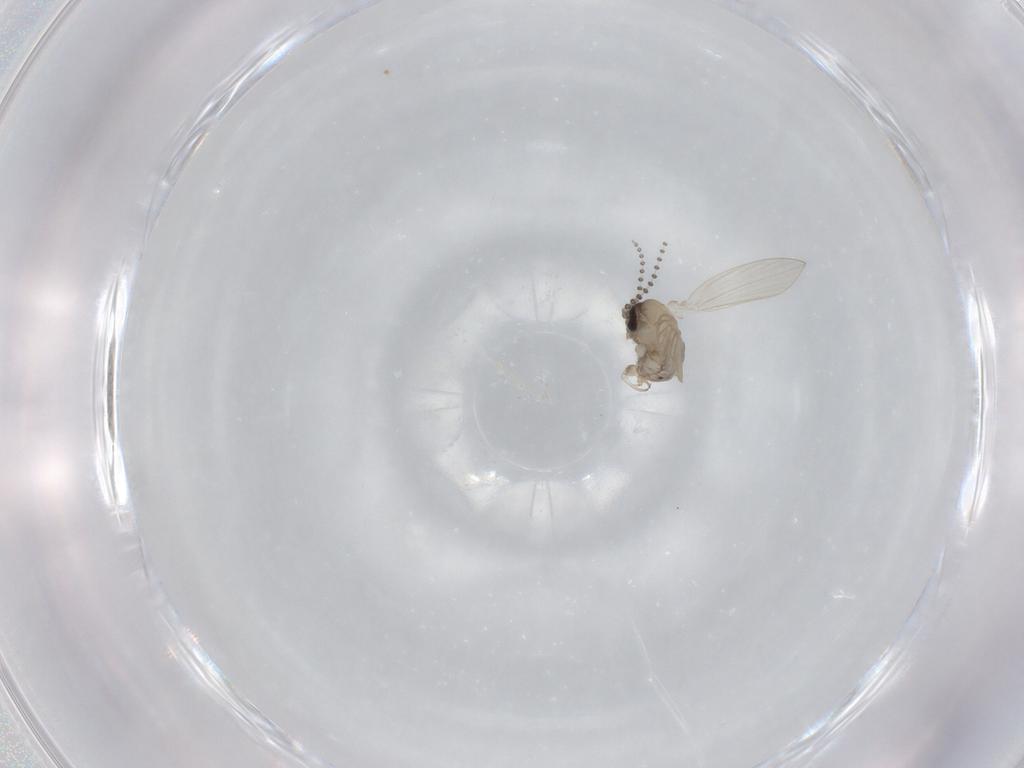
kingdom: Animalia
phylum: Arthropoda
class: Insecta
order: Diptera
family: Psychodidae
